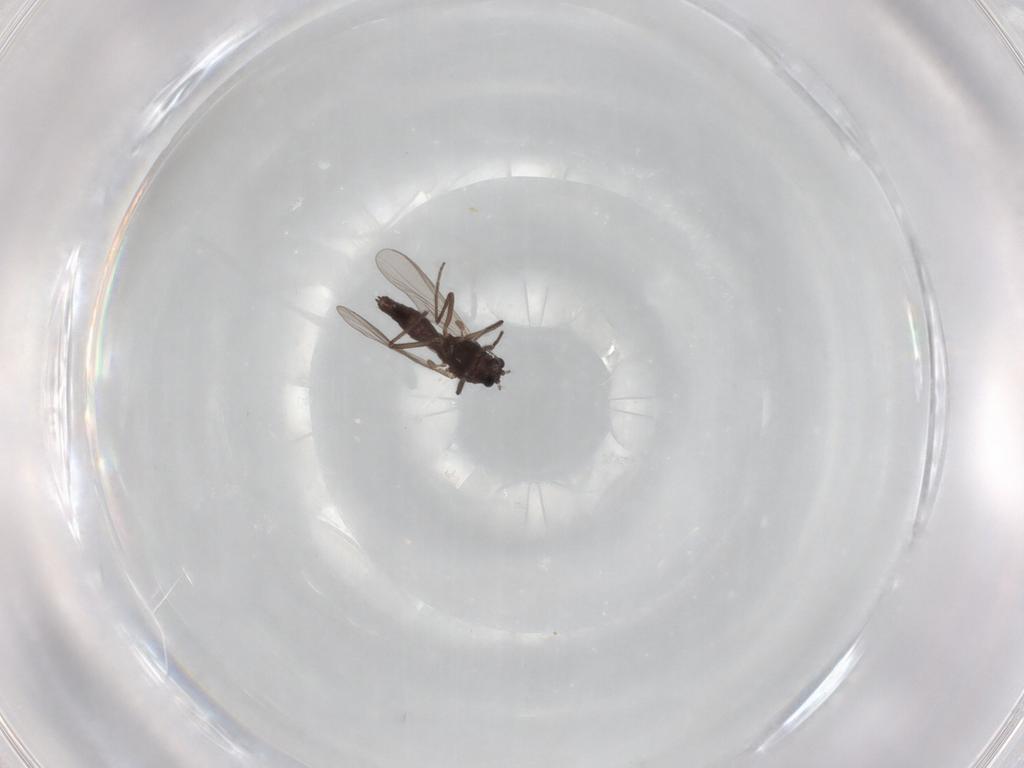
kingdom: Animalia
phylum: Arthropoda
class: Insecta
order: Diptera
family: Chironomidae
